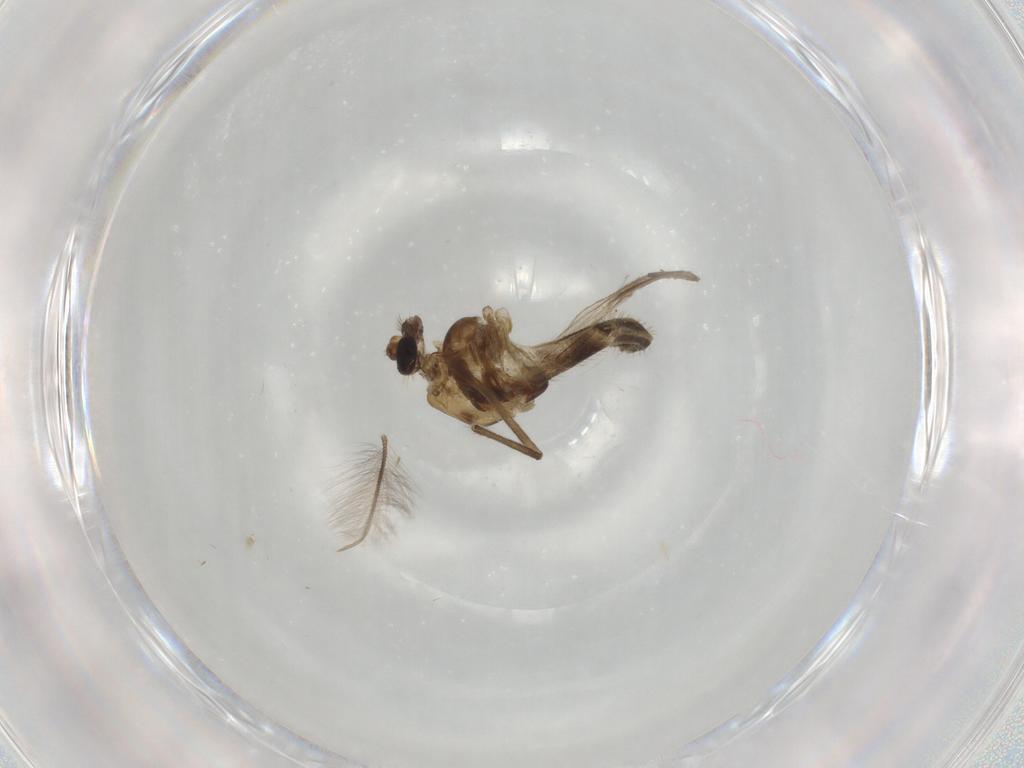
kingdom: Animalia
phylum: Arthropoda
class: Insecta
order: Diptera
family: Chironomidae
